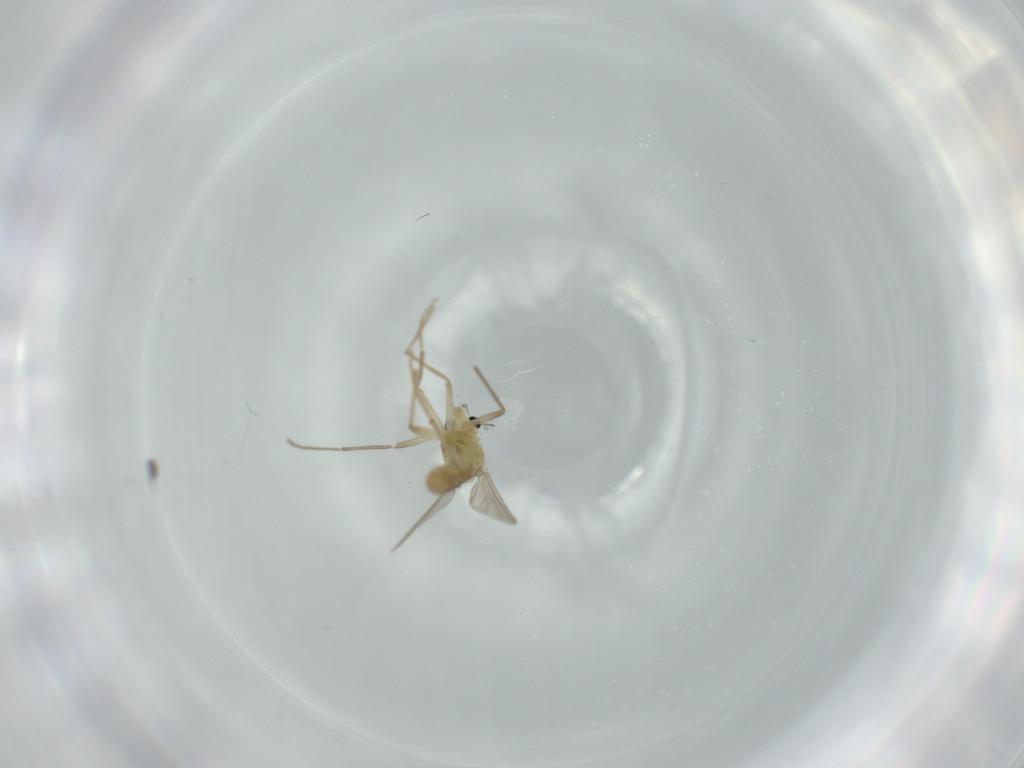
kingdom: Animalia
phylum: Arthropoda
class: Insecta
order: Diptera
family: Chironomidae
